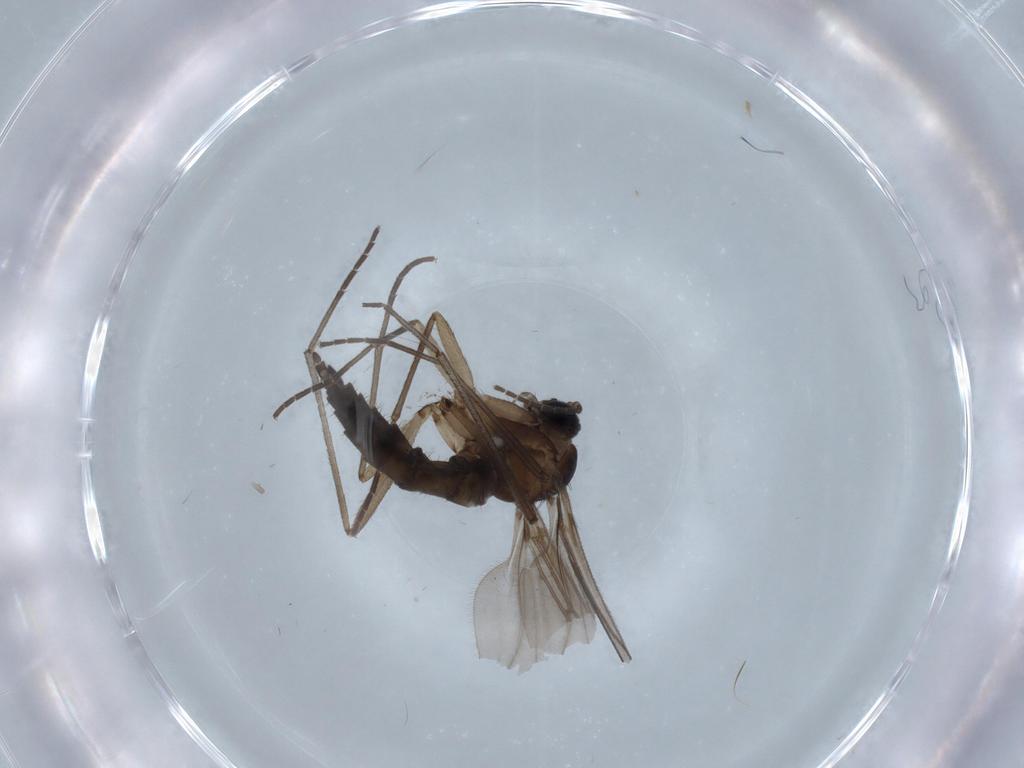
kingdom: Animalia
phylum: Arthropoda
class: Insecta
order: Diptera
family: Sciaridae
